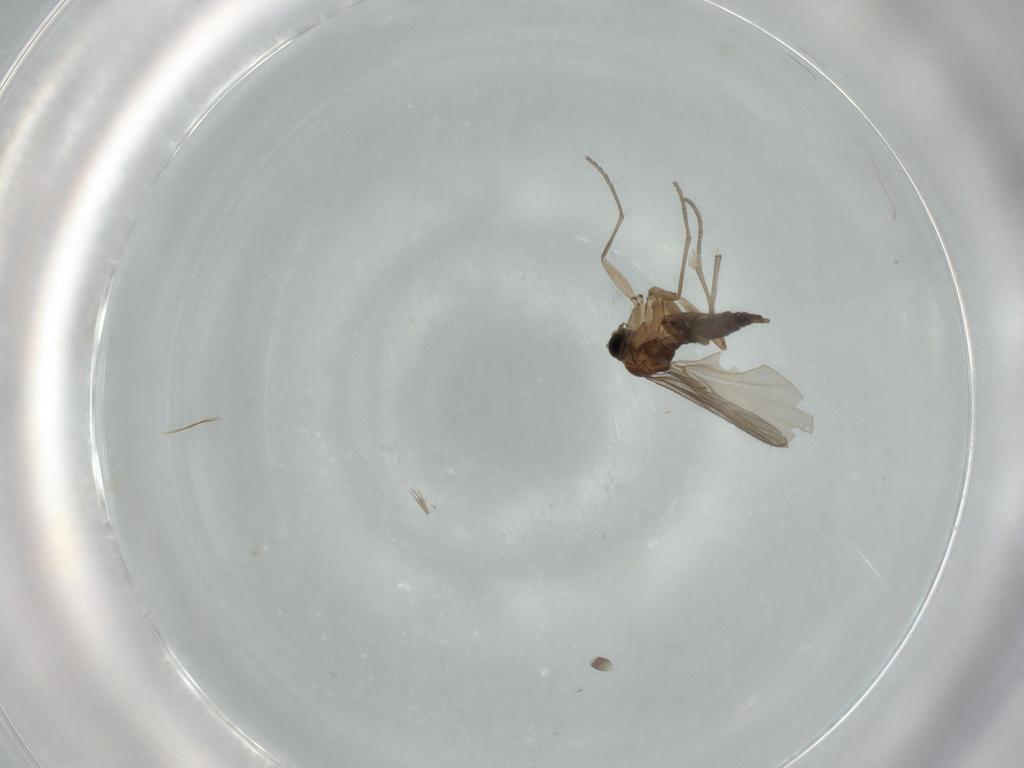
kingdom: Animalia
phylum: Arthropoda
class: Insecta
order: Diptera
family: Sciaridae
